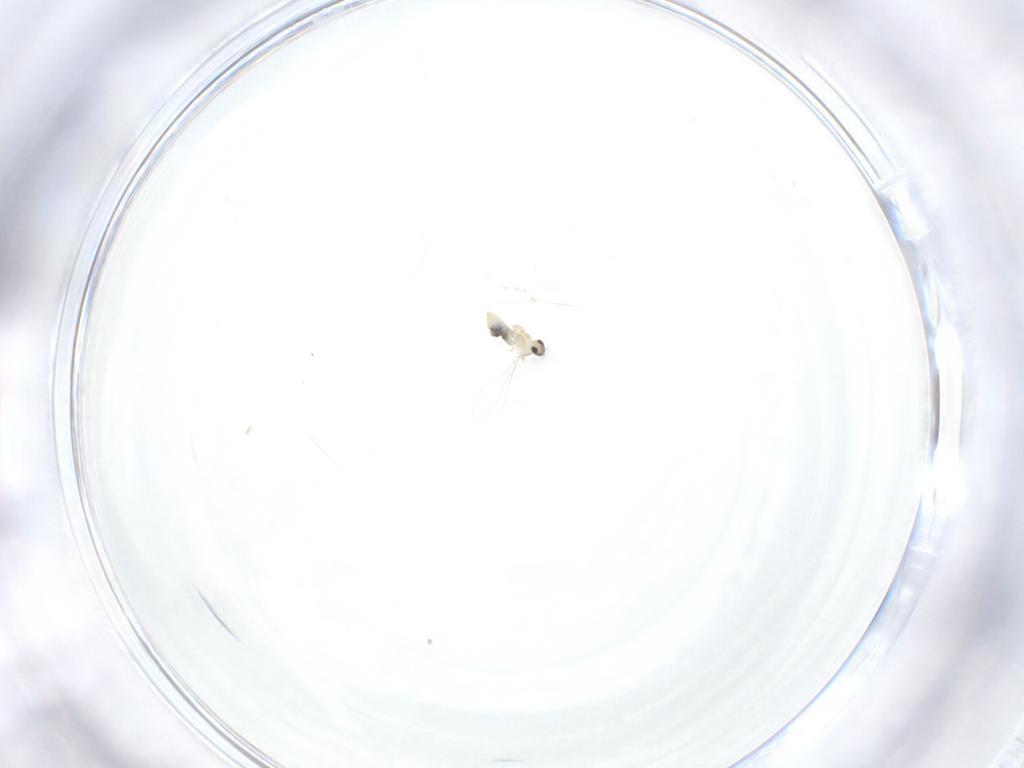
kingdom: Animalia
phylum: Arthropoda
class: Insecta
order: Diptera
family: Cecidomyiidae
